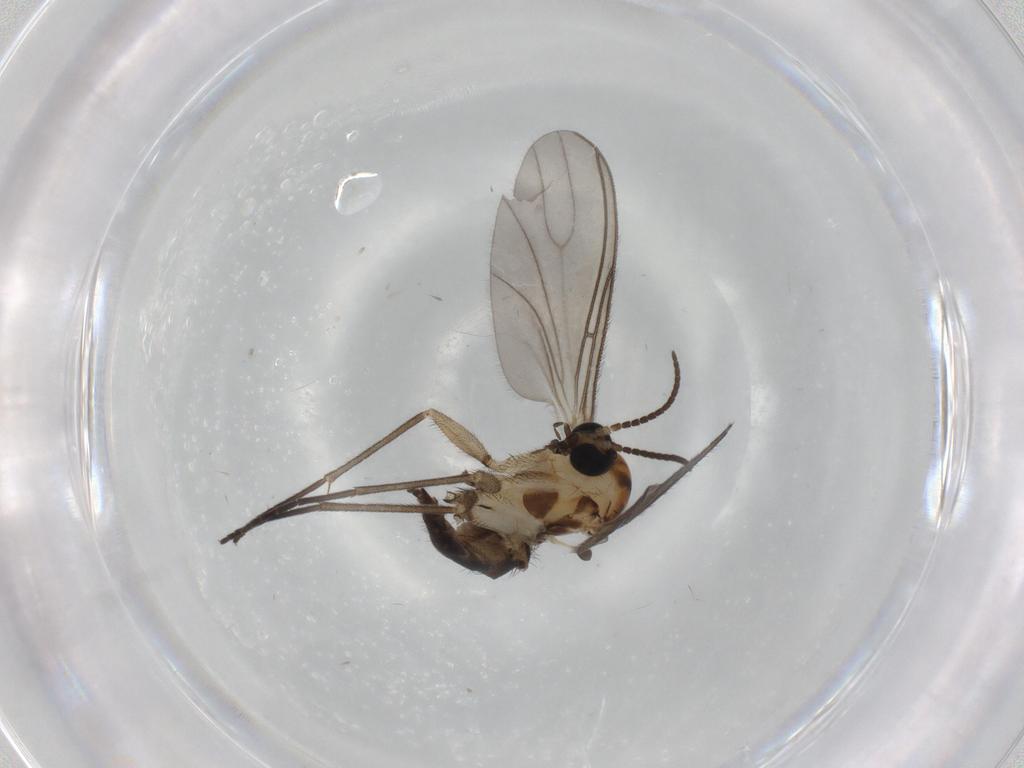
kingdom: Animalia
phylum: Arthropoda
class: Insecta
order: Diptera
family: Sciaridae
